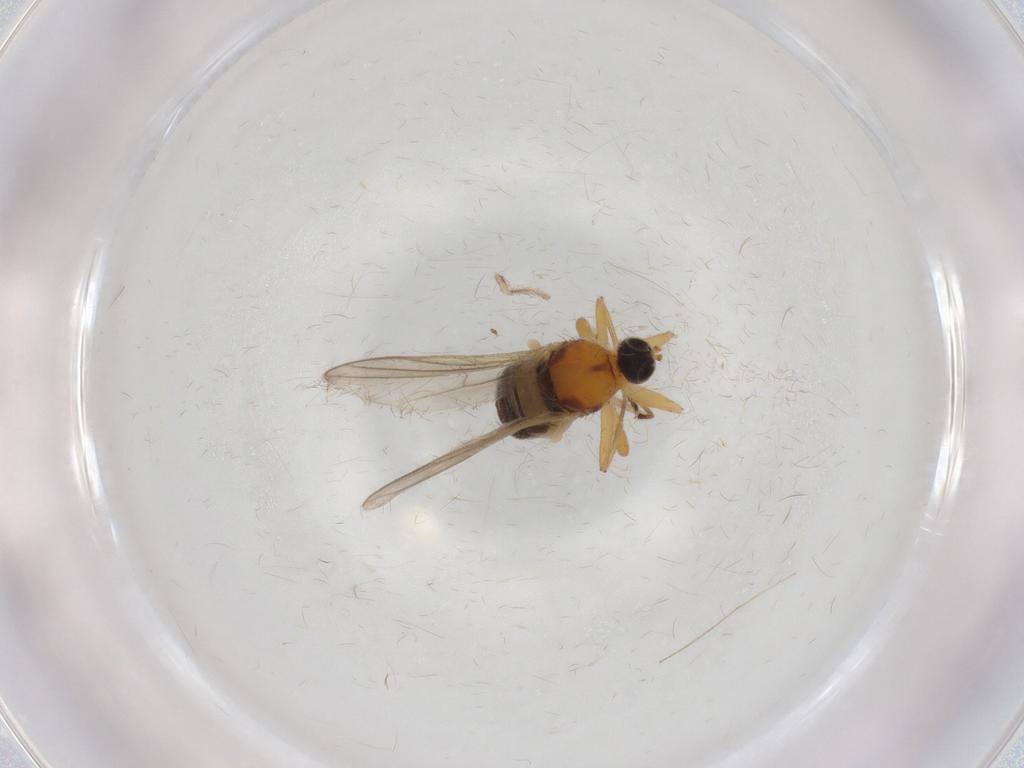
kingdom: Animalia
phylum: Arthropoda
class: Insecta
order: Diptera
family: Hybotidae
